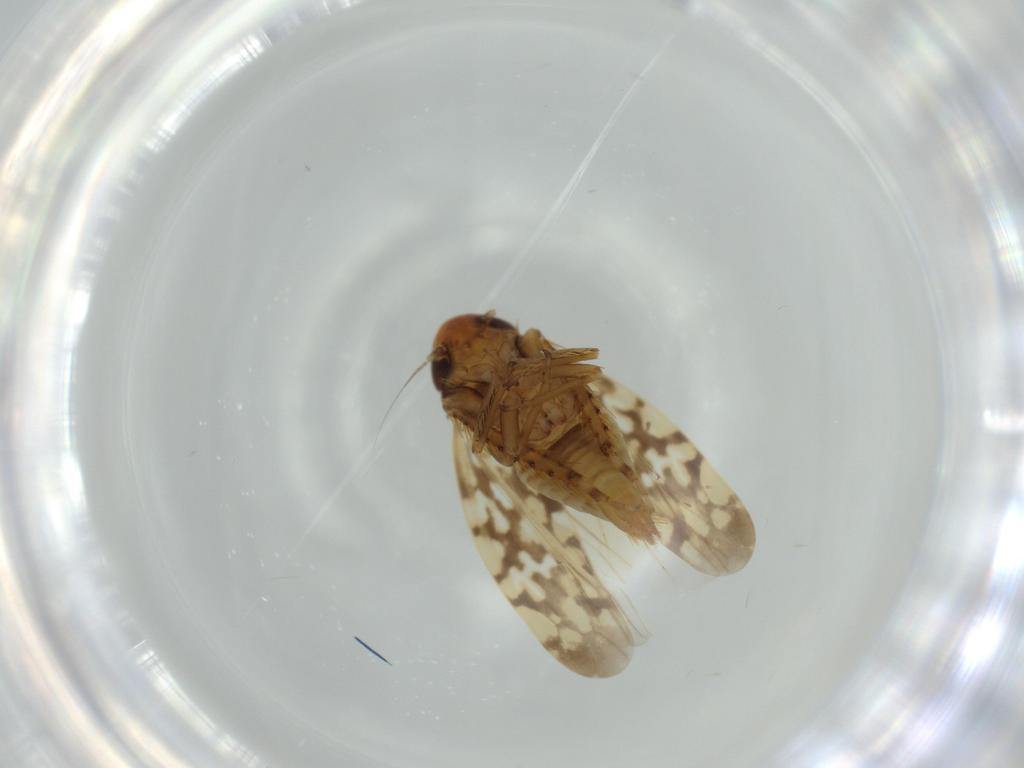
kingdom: Animalia
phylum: Arthropoda
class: Insecta
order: Hemiptera
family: Cicadellidae
